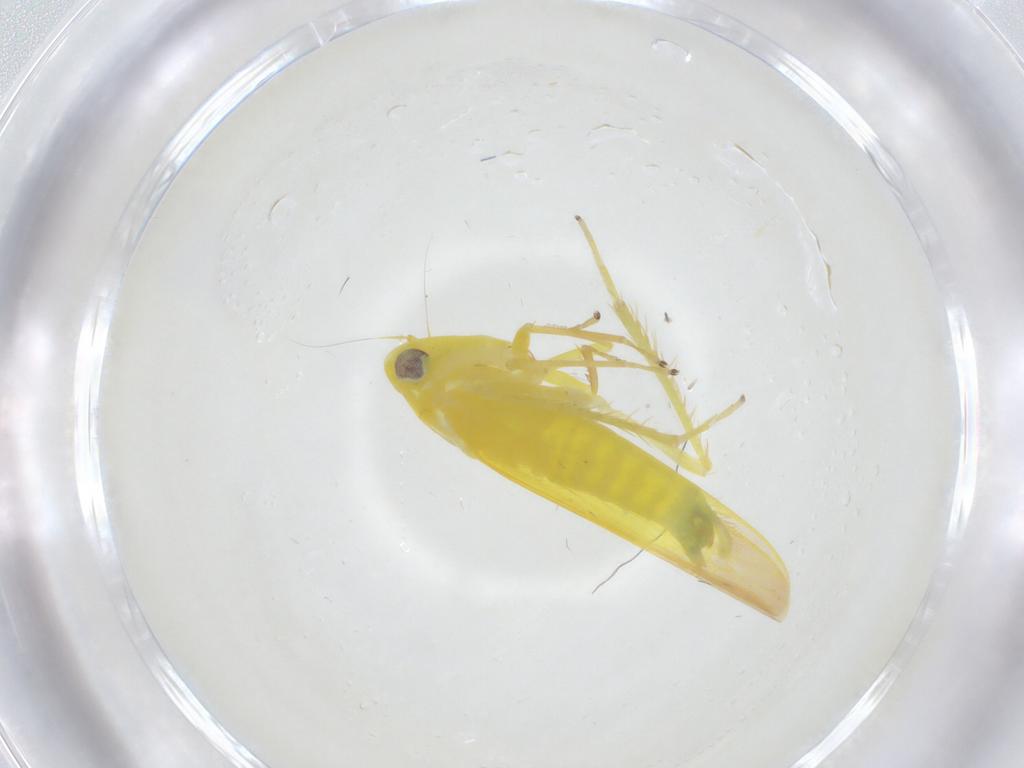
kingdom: Animalia
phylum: Arthropoda
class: Insecta
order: Hemiptera
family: Cicadellidae
